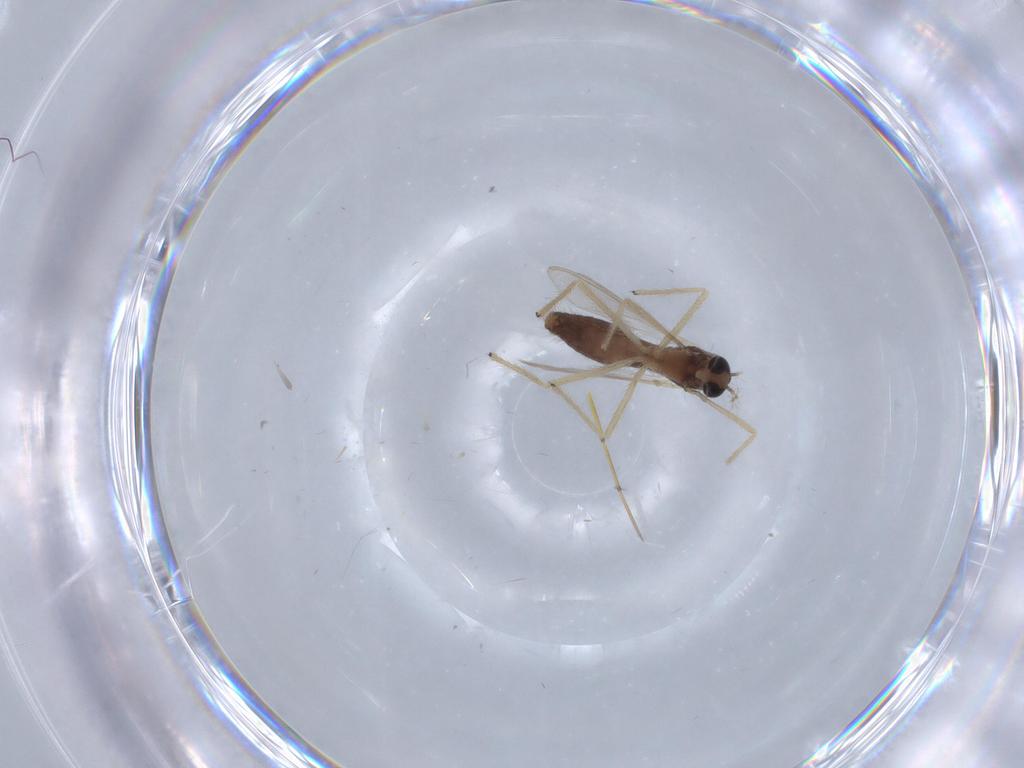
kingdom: Animalia
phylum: Arthropoda
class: Insecta
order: Diptera
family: Chironomidae
